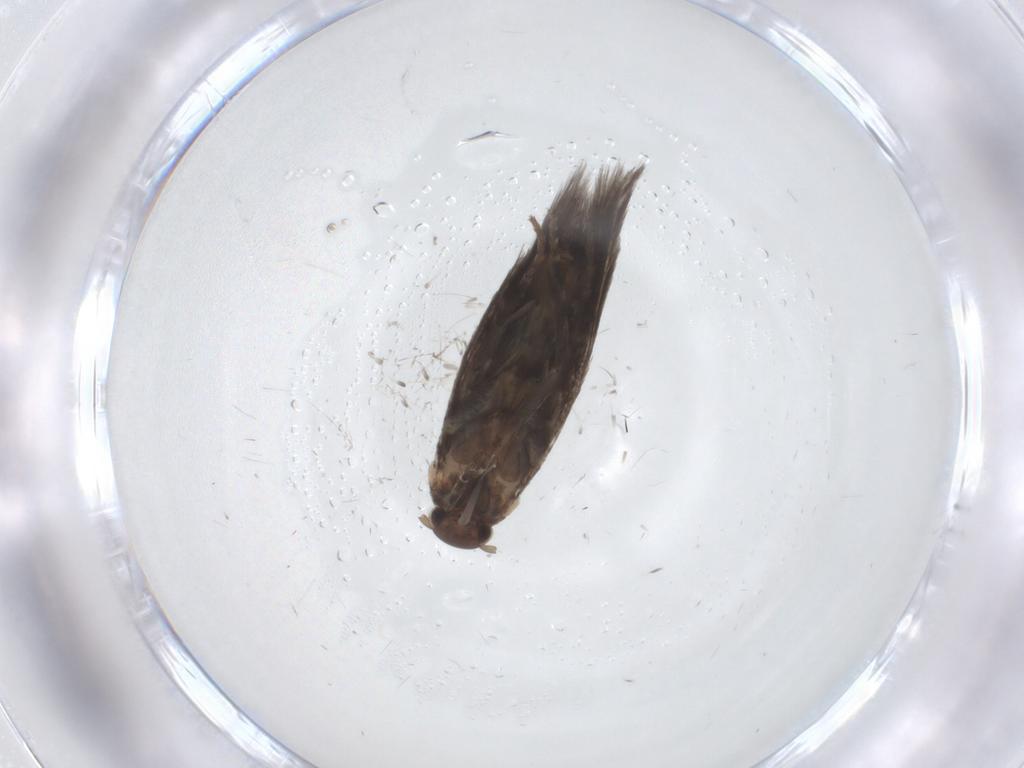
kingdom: Animalia
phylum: Arthropoda
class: Insecta
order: Lepidoptera
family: Elachistidae
